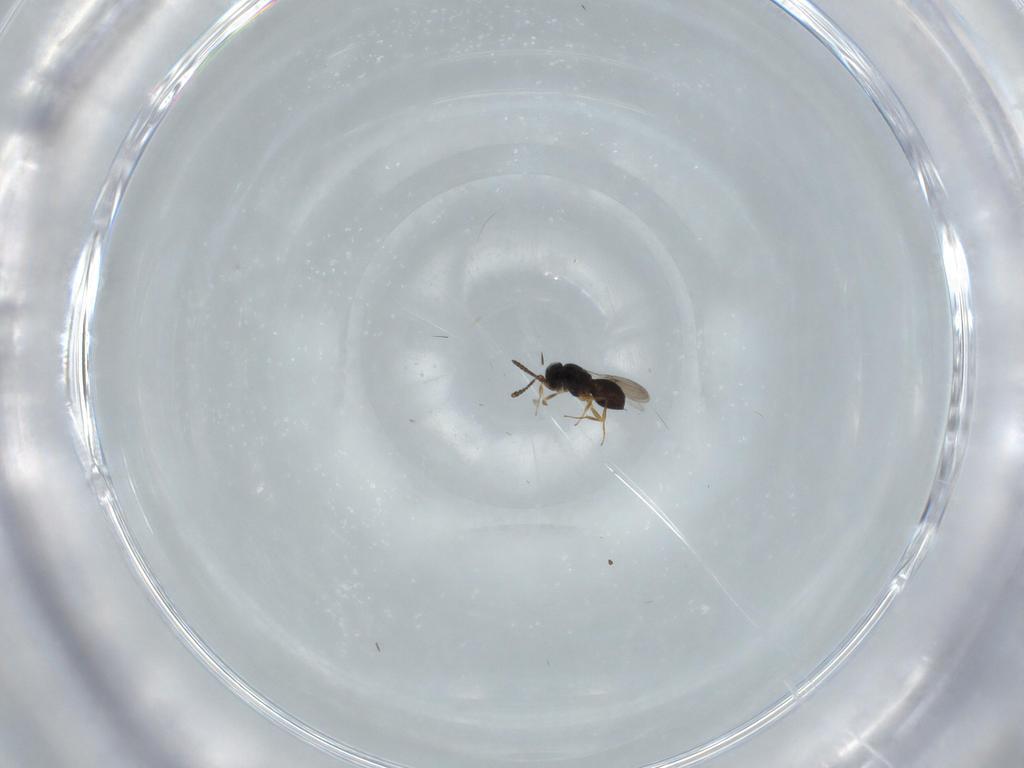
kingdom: Animalia
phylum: Arthropoda
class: Insecta
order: Hymenoptera
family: Scelionidae
